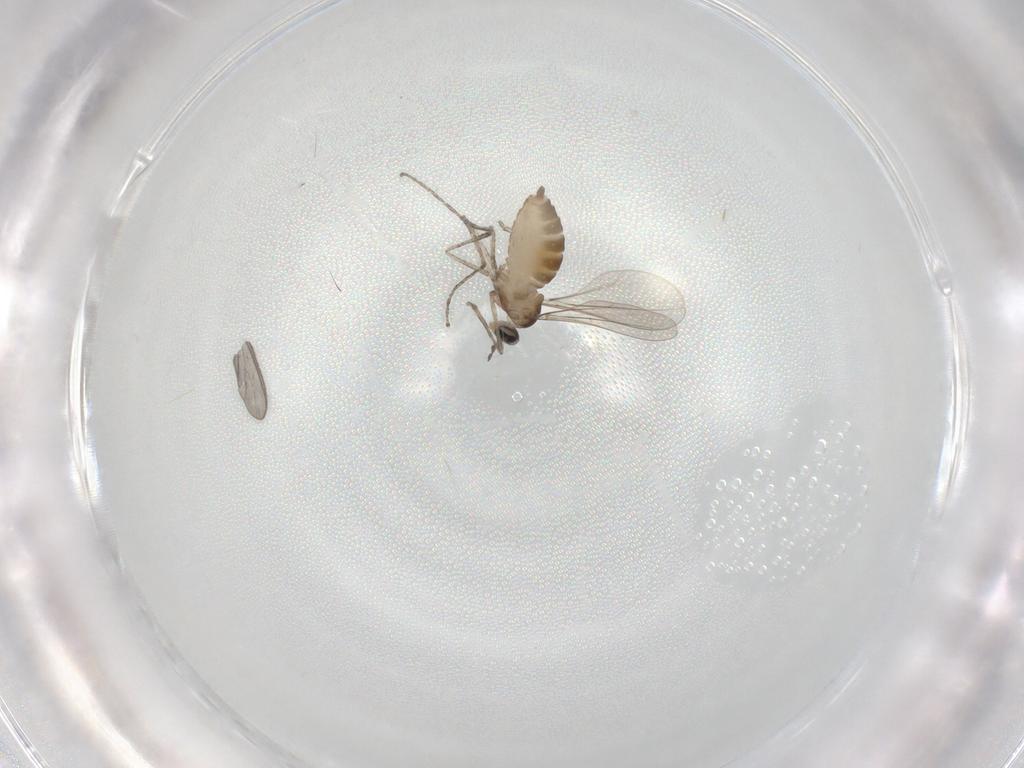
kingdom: Animalia
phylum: Arthropoda
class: Insecta
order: Diptera
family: Cecidomyiidae
